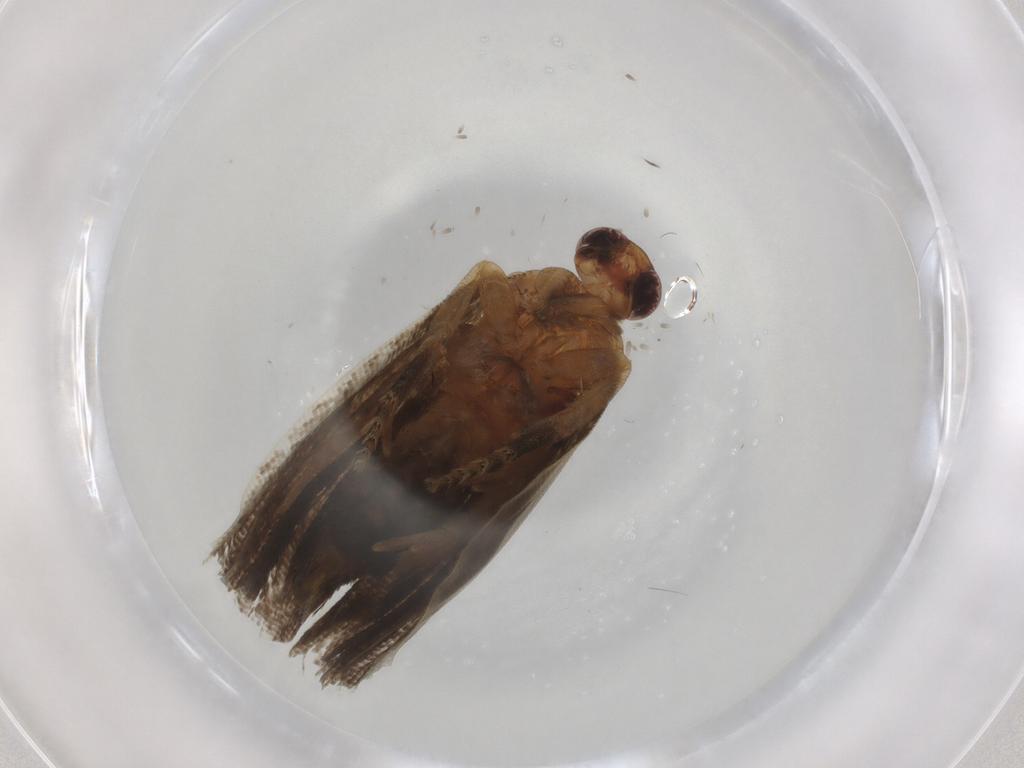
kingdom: Animalia
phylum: Arthropoda
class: Insecta
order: Lepidoptera
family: Tortricidae
